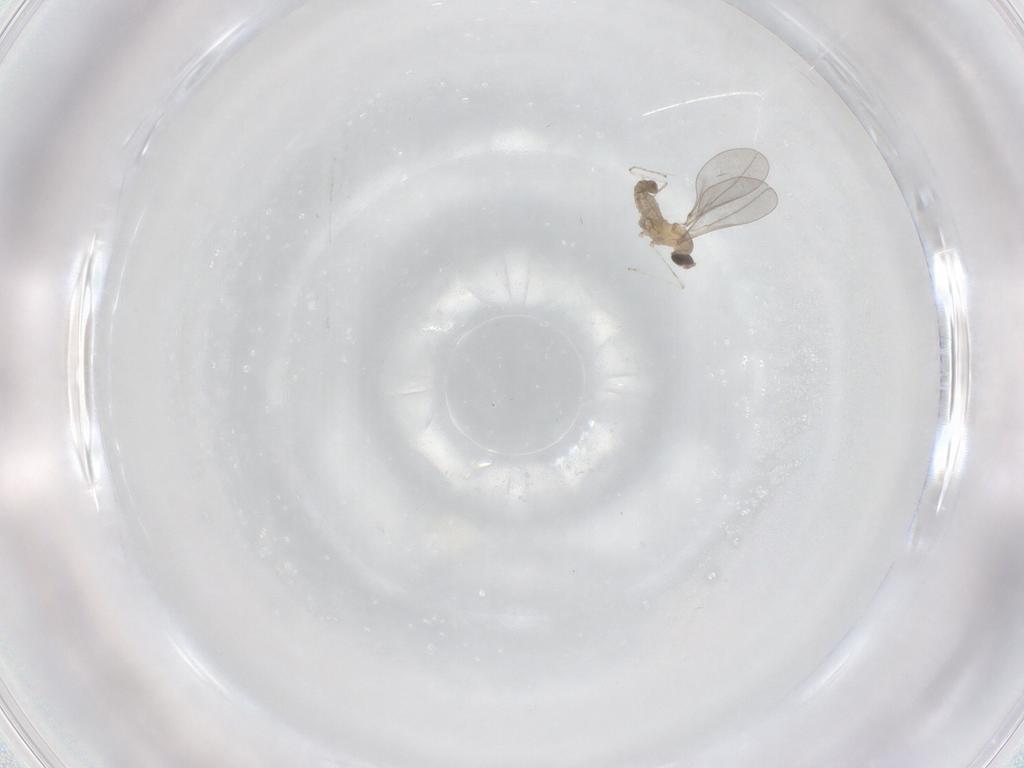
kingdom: Animalia
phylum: Arthropoda
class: Insecta
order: Diptera
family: Cecidomyiidae
